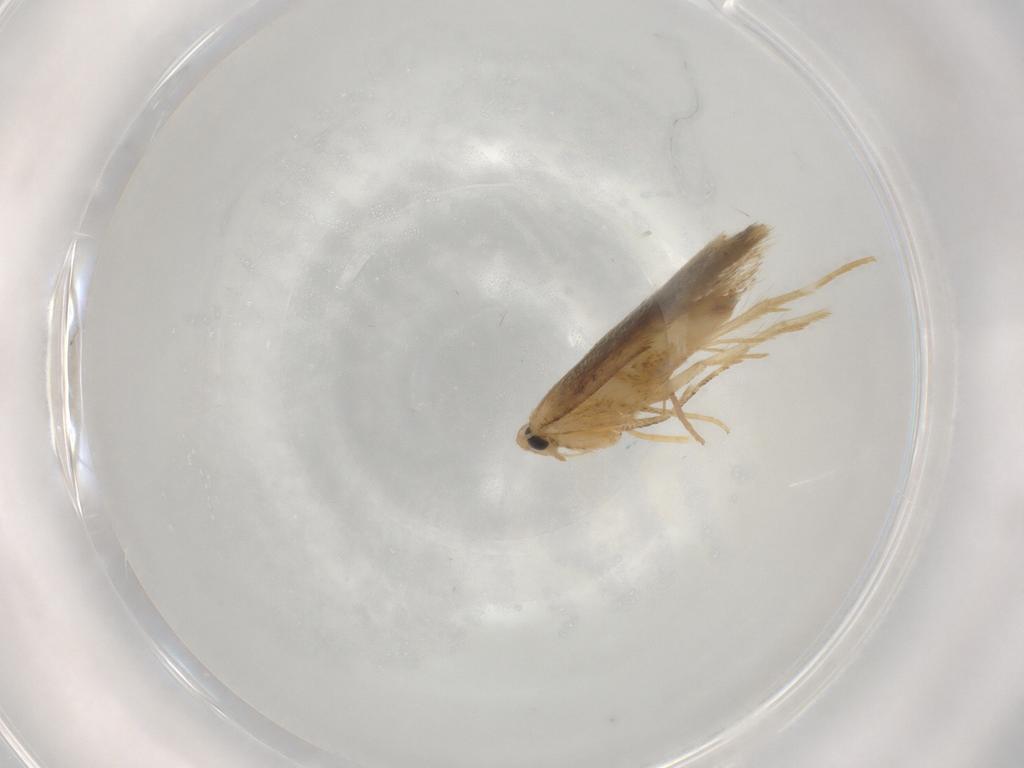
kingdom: Animalia
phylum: Arthropoda
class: Insecta
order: Lepidoptera
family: Tischeriidae
